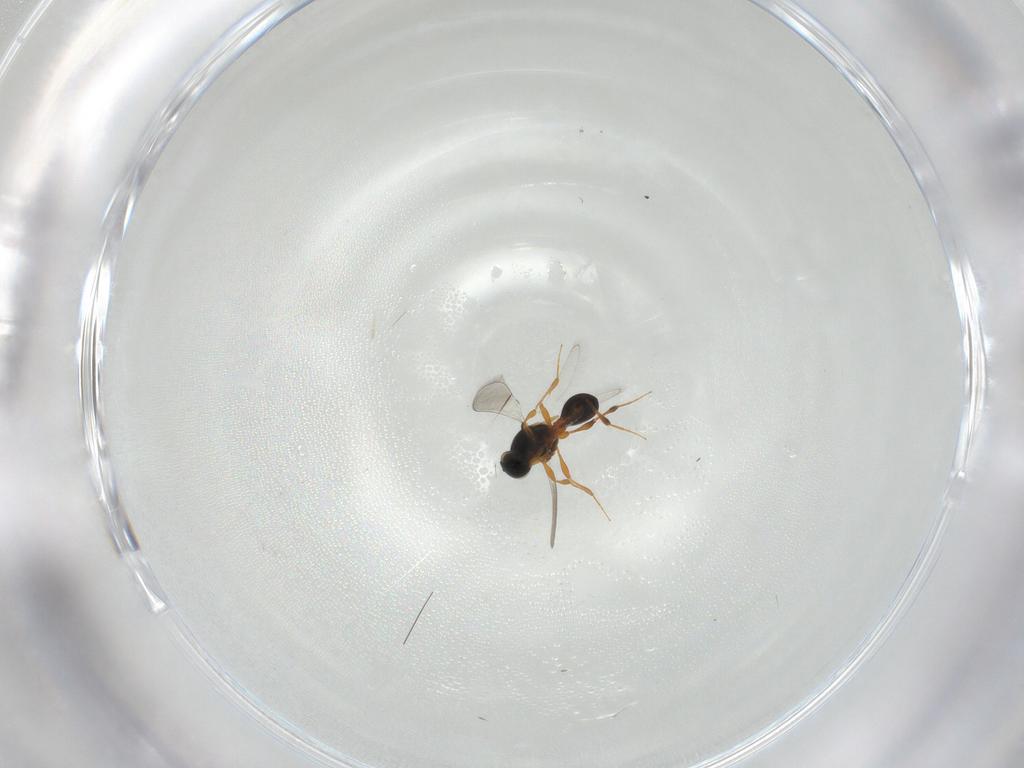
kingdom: Animalia
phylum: Arthropoda
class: Insecta
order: Hymenoptera
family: Platygastridae
